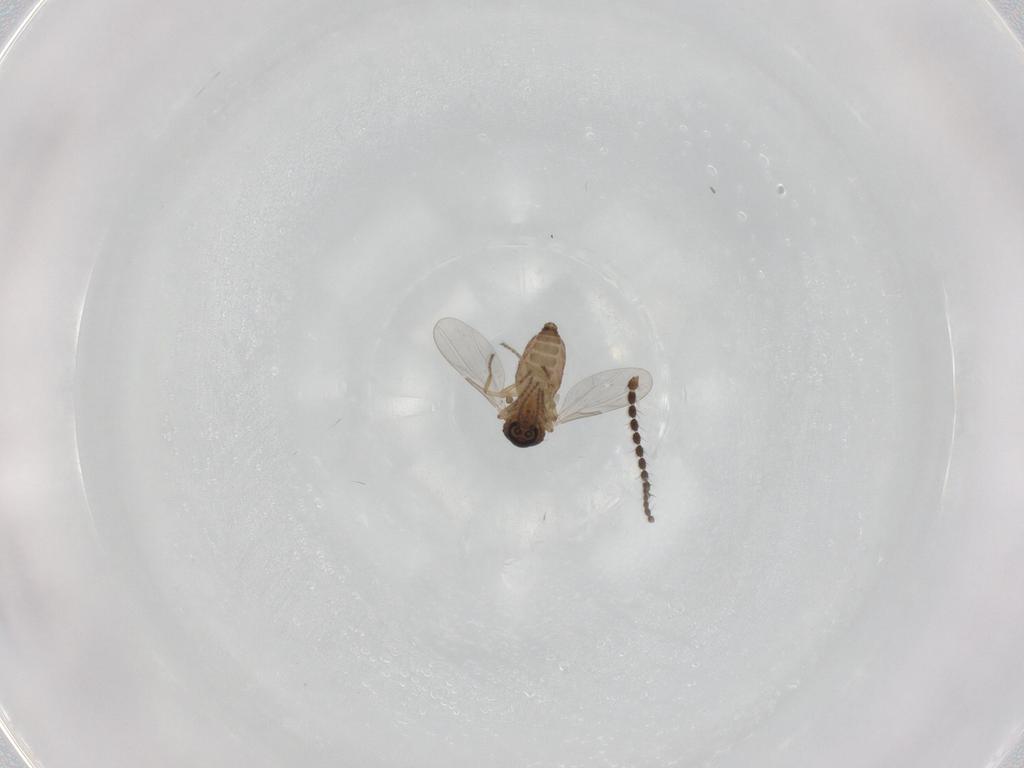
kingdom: Animalia
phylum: Arthropoda
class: Insecta
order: Diptera
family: Limoniidae
